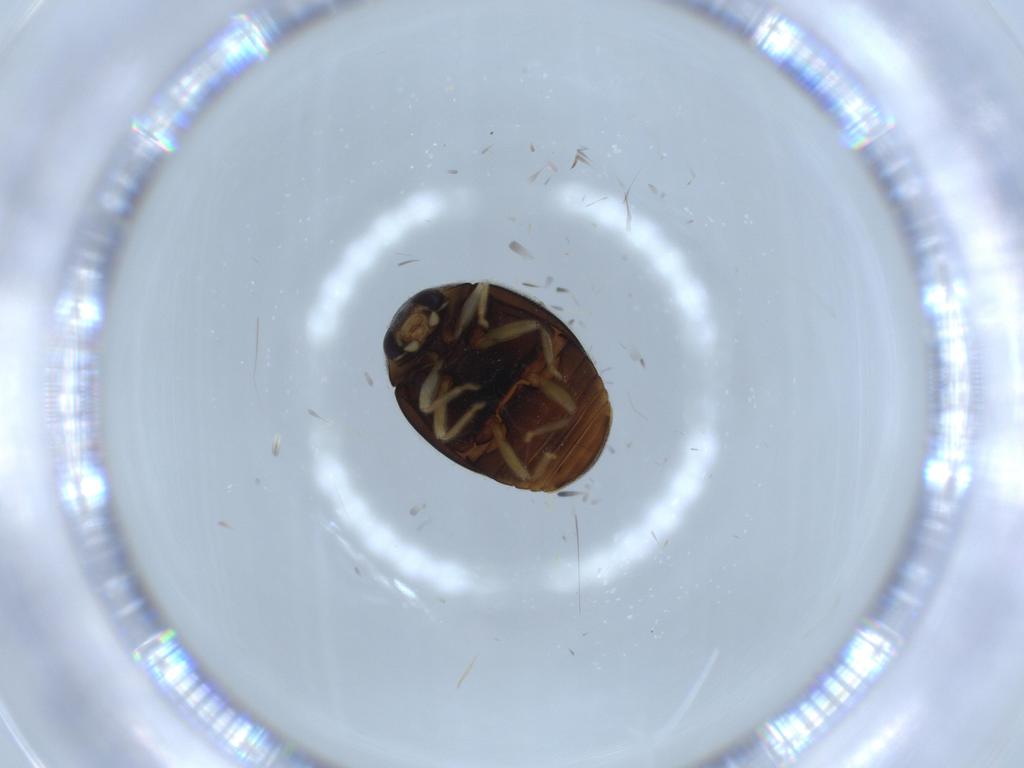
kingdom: Animalia
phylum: Arthropoda
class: Insecta
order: Coleoptera
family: Coccinellidae
